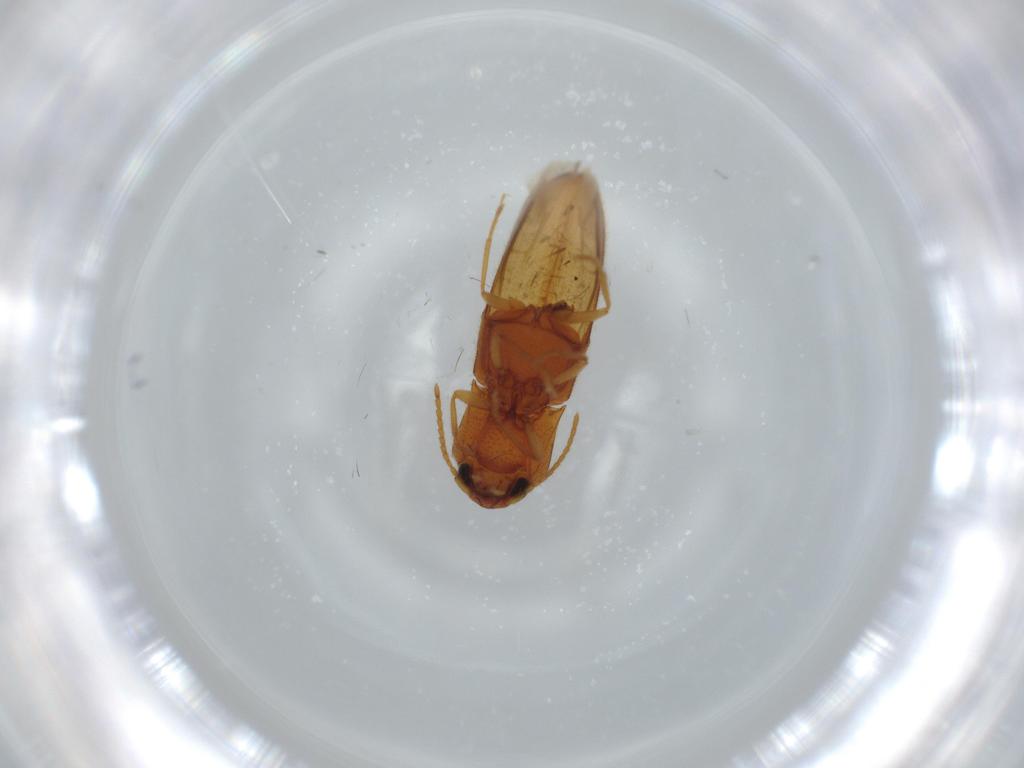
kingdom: Animalia
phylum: Arthropoda
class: Insecta
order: Coleoptera
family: Elateridae
